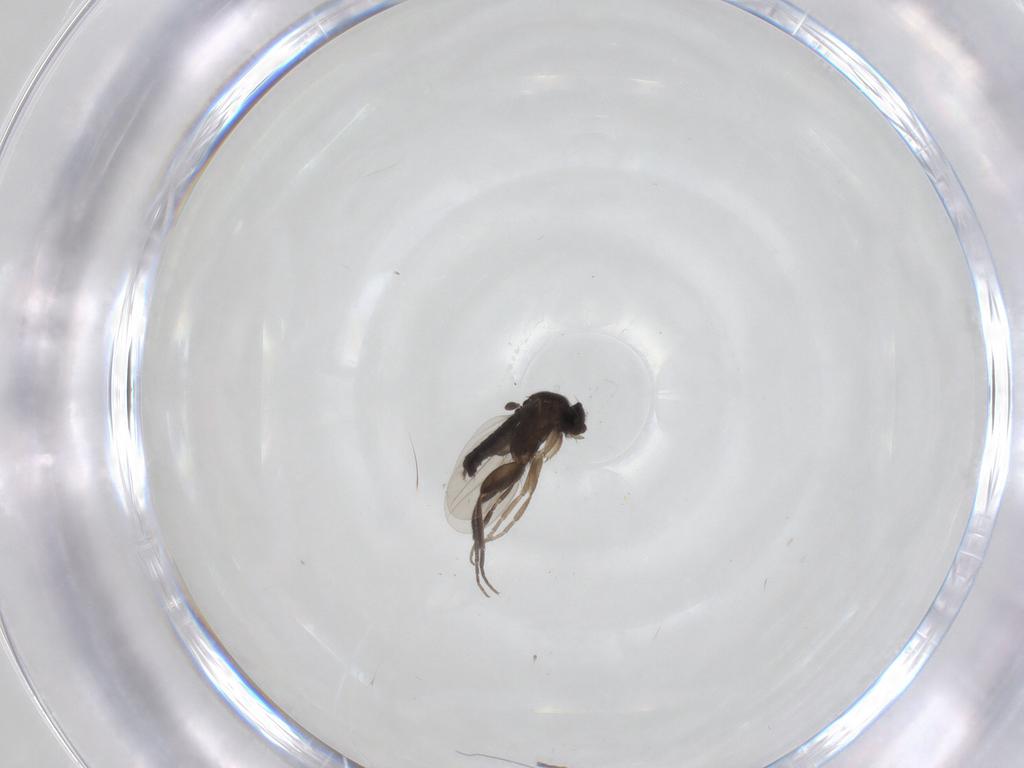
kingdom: Animalia
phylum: Arthropoda
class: Insecta
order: Diptera
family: Phoridae
